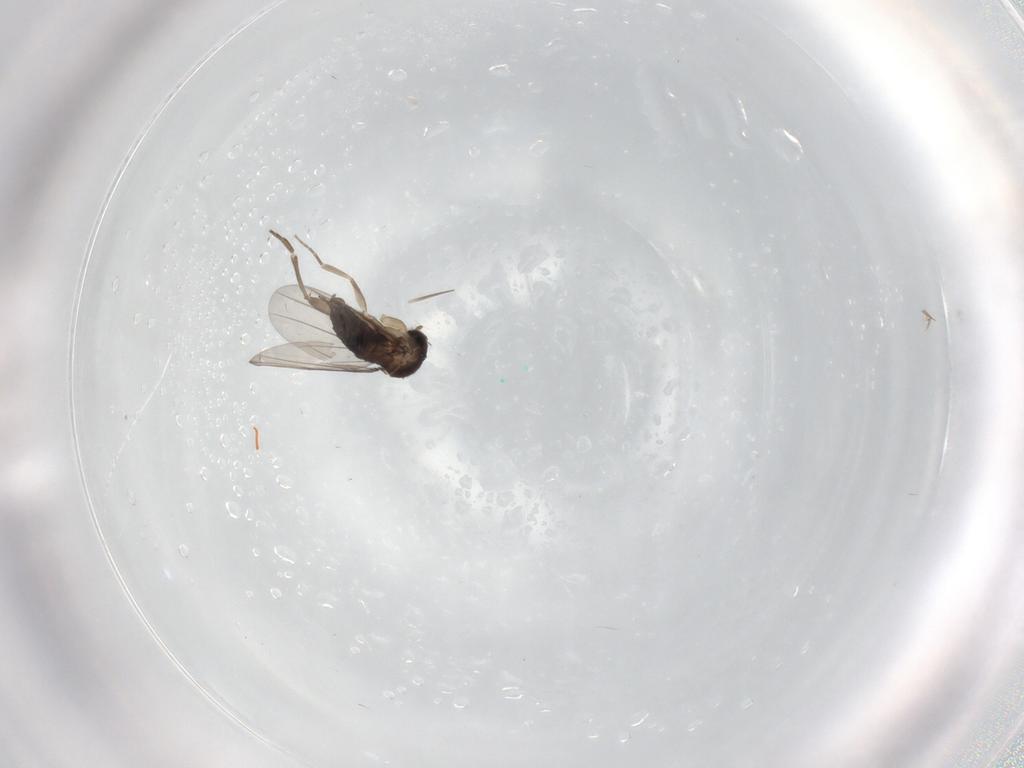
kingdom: Animalia
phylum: Arthropoda
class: Insecta
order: Diptera
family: Phoridae
